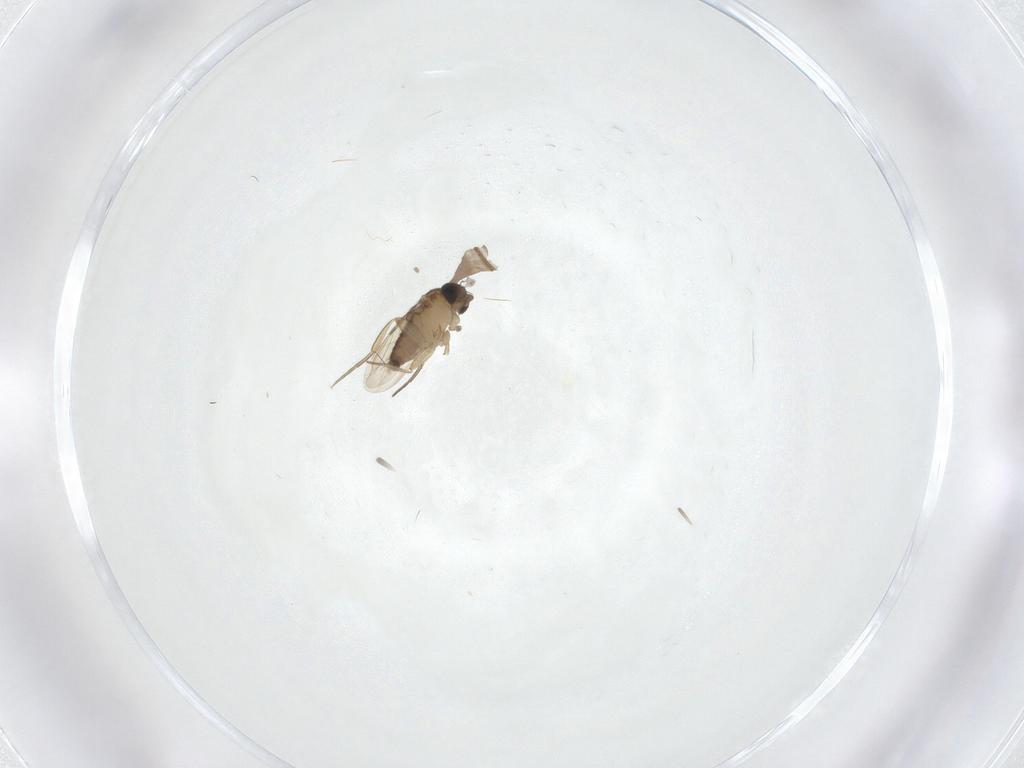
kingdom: Animalia
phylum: Arthropoda
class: Insecta
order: Diptera
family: Phoridae
